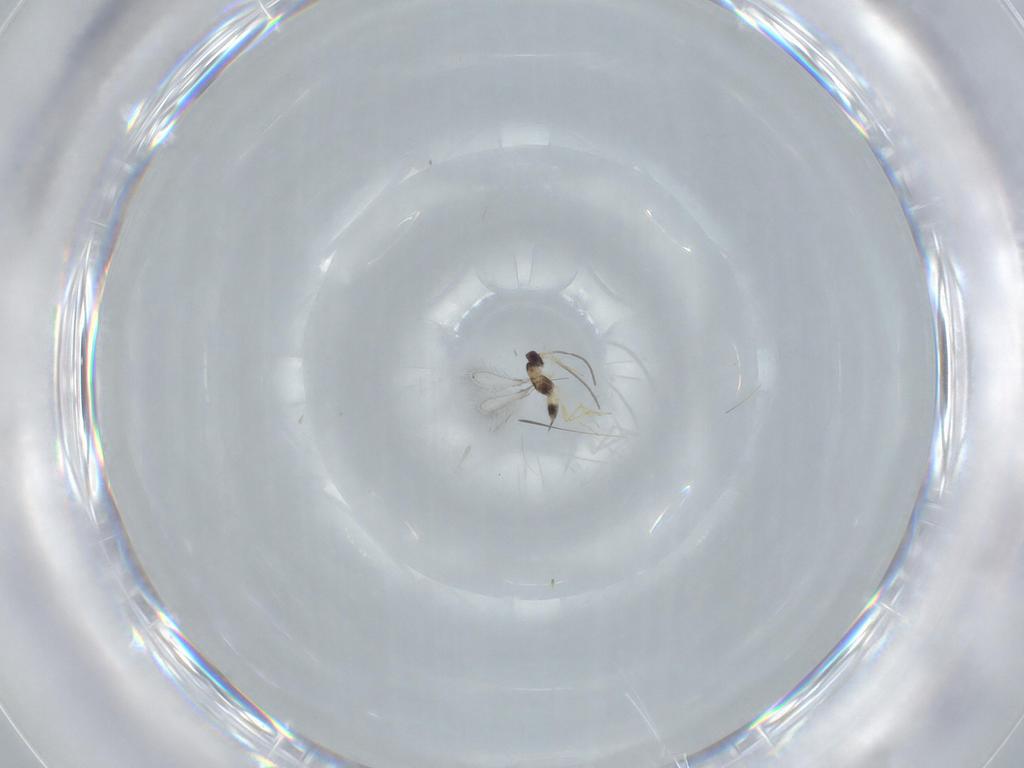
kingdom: Animalia
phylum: Arthropoda
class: Insecta
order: Hymenoptera
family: Mymaridae
